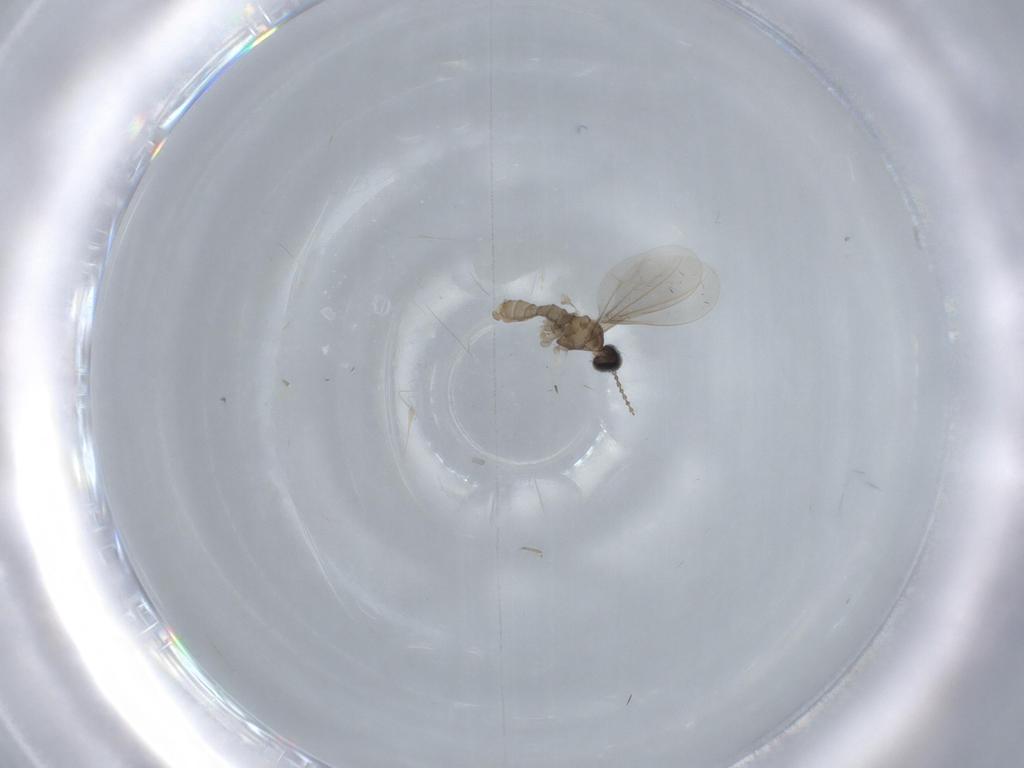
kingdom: Animalia
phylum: Arthropoda
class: Insecta
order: Diptera
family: Cecidomyiidae
